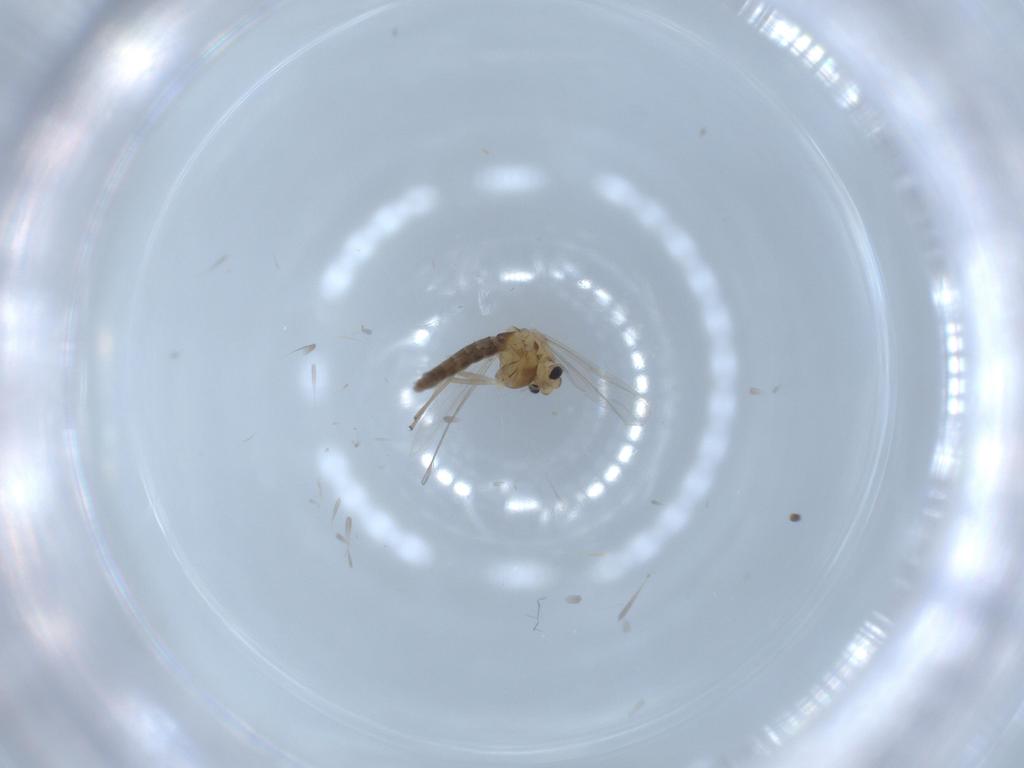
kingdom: Animalia
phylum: Arthropoda
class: Insecta
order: Diptera
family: Chironomidae
